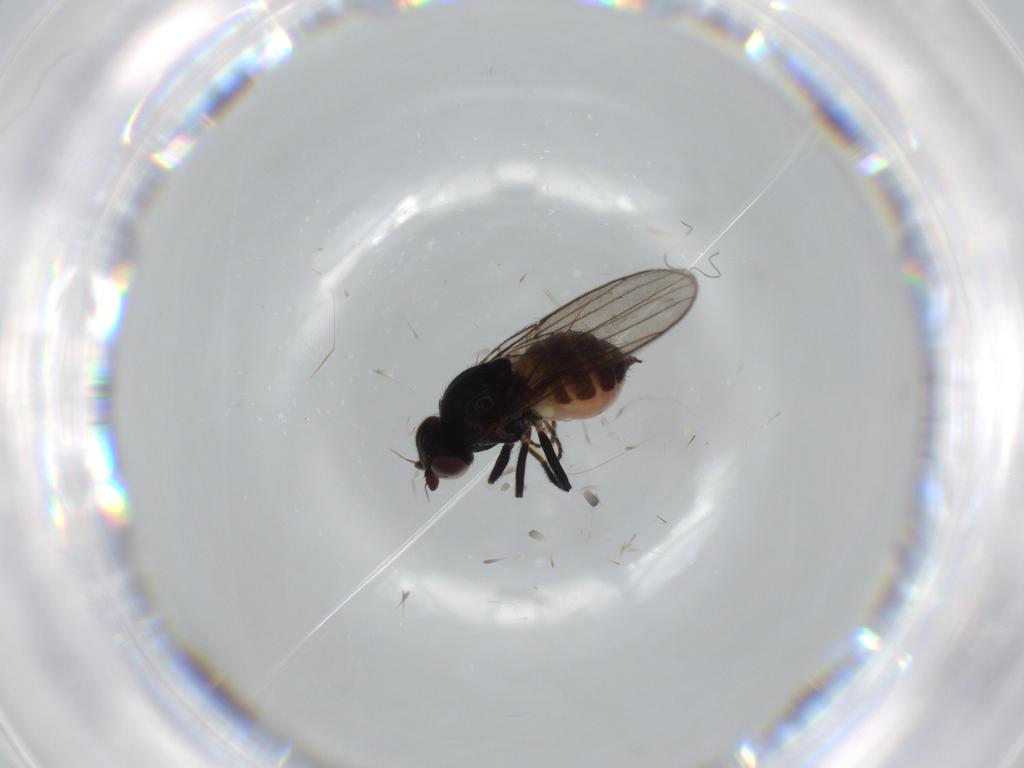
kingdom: Animalia
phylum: Arthropoda
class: Insecta
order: Diptera
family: Chloropidae
